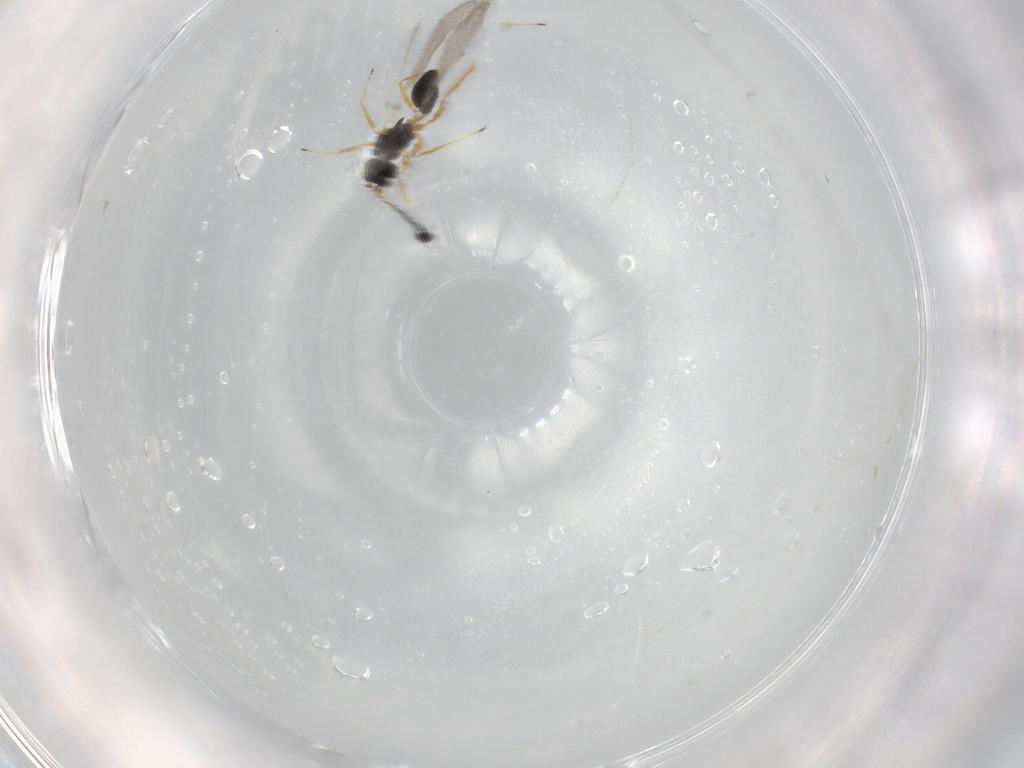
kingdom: Animalia
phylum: Arthropoda
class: Insecta
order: Hymenoptera
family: Mymaridae
